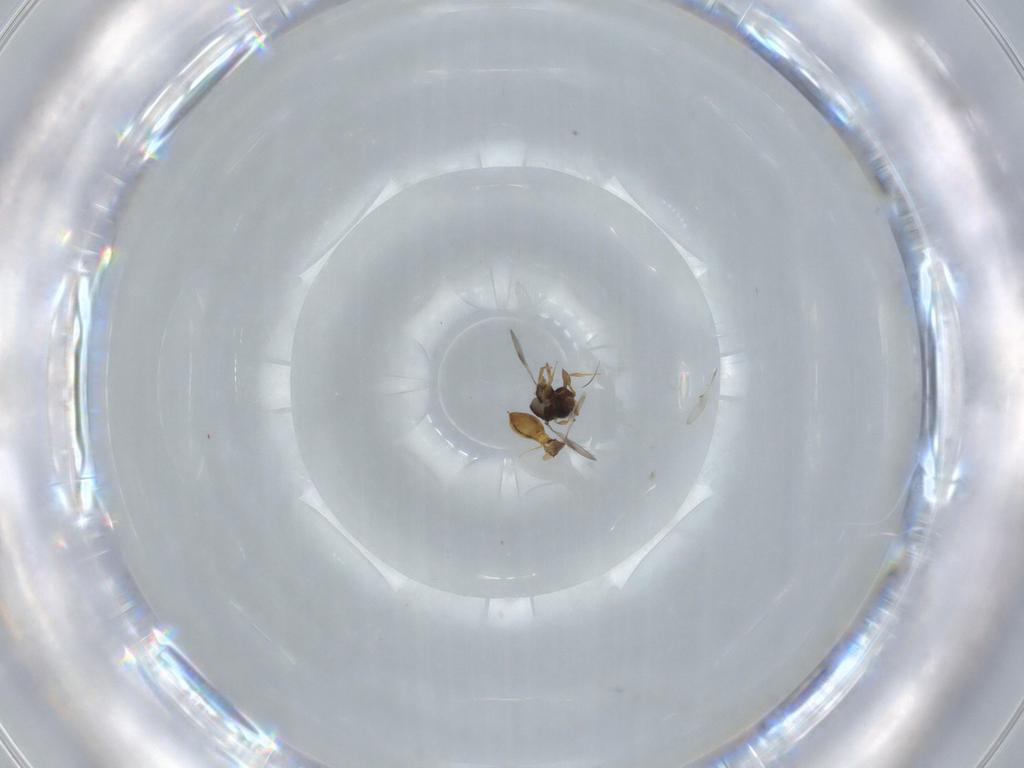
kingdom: Animalia
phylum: Arthropoda
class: Insecta
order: Hymenoptera
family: Scelionidae
